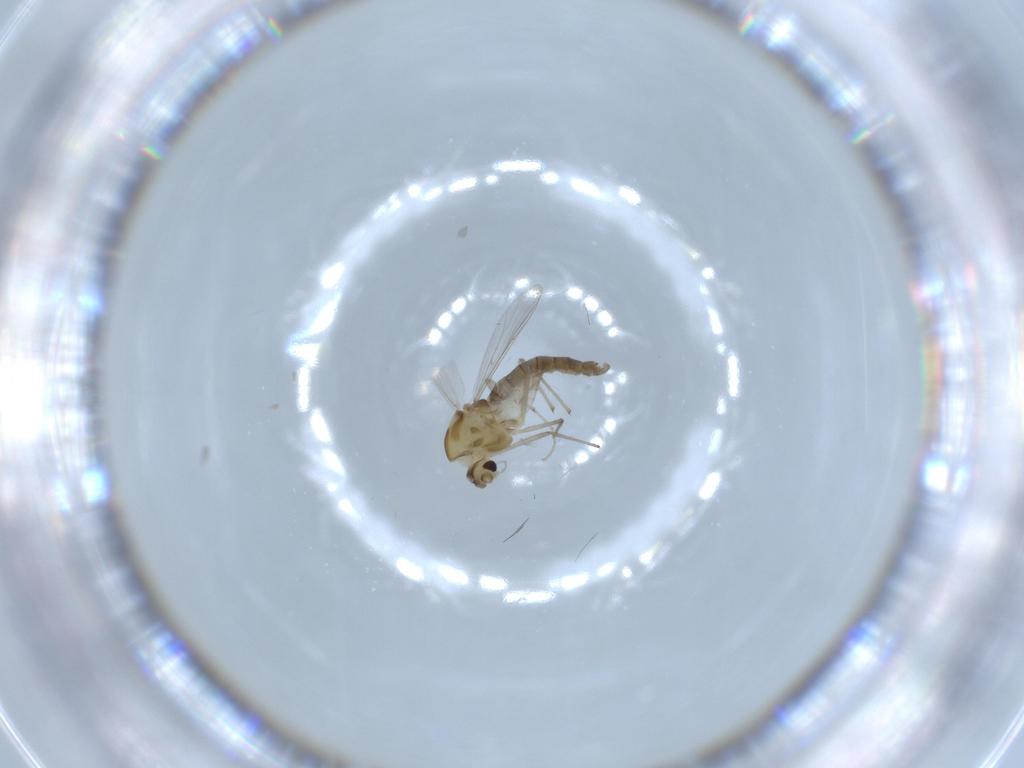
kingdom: Animalia
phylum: Arthropoda
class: Insecta
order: Diptera
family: Chironomidae
